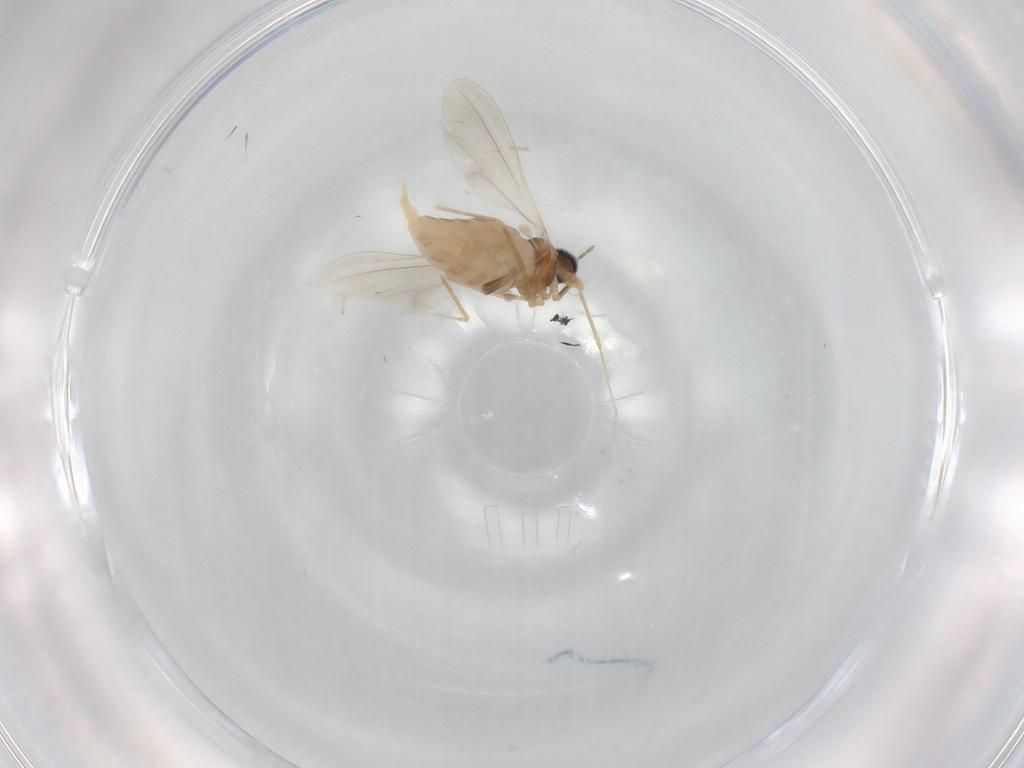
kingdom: Animalia
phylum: Arthropoda
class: Insecta
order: Diptera
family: Cecidomyiidae
